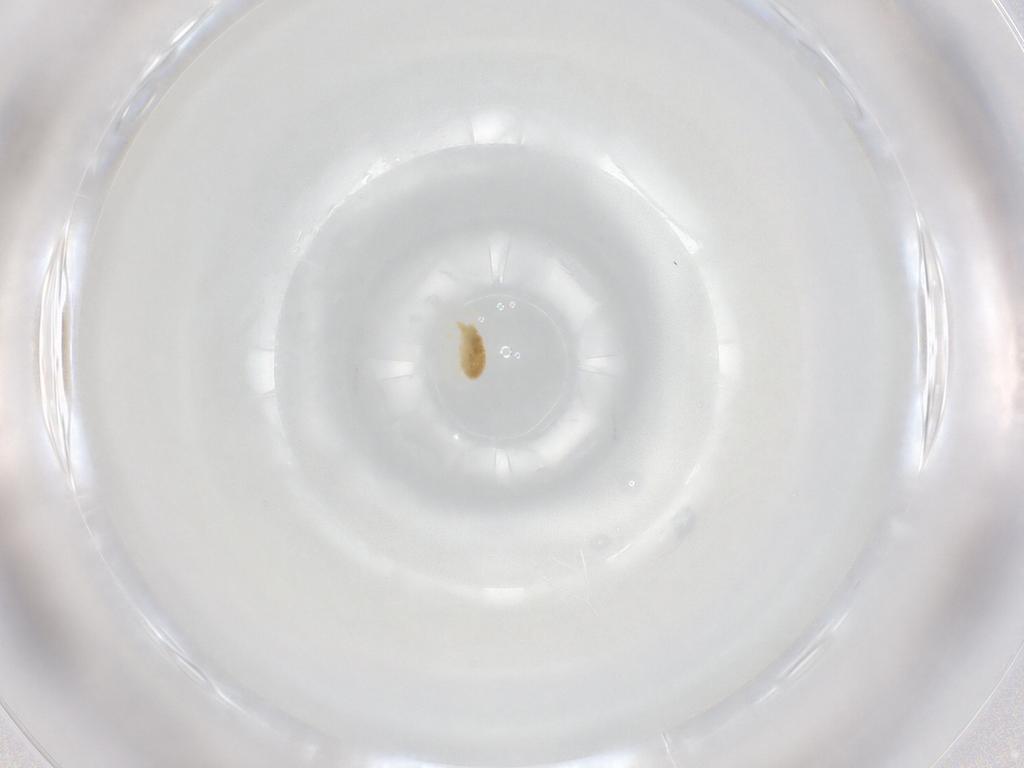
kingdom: Animalia
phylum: Arthropoda
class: Arachnida
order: Trombidiformes
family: Eupodidae
